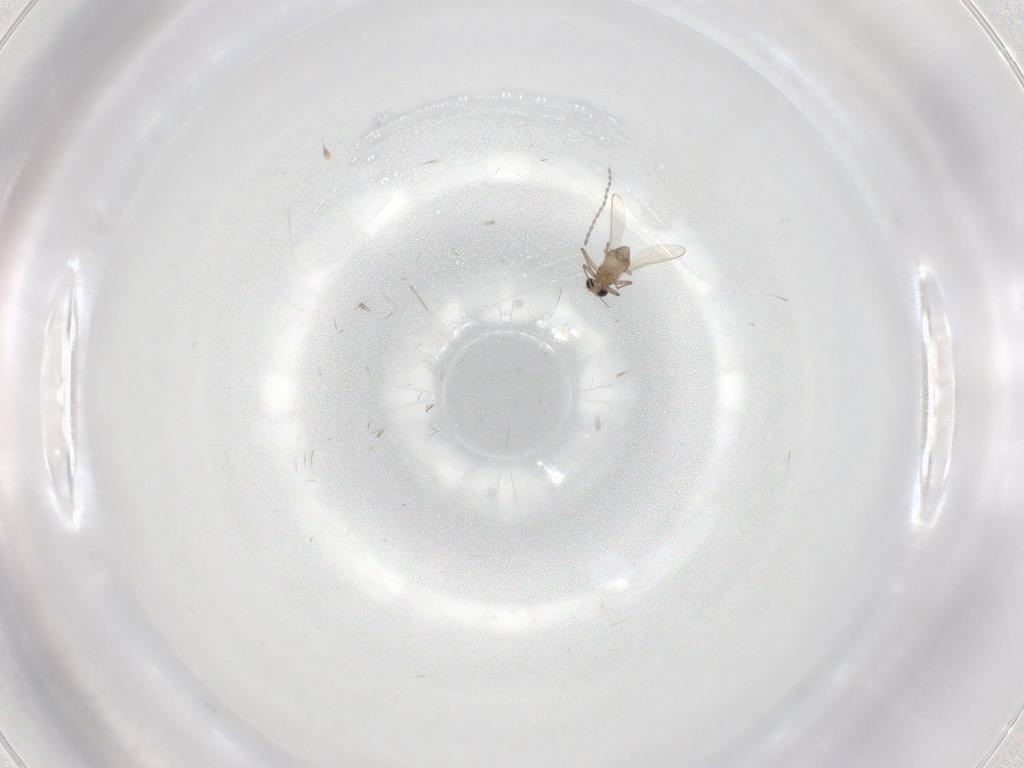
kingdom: Animalia
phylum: Arthropoda
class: Insecta
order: Diptera
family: Chironomidae
